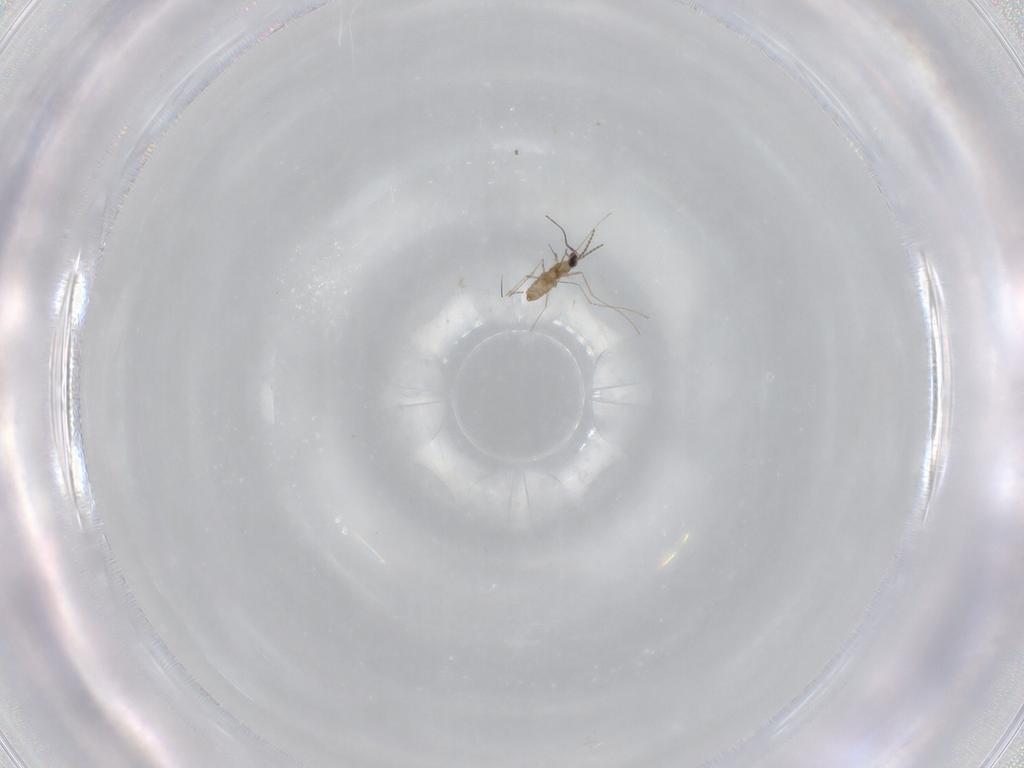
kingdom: Animalia
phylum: Arthropoda
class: Insecta
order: Diptera
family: Cecidomyiidae
